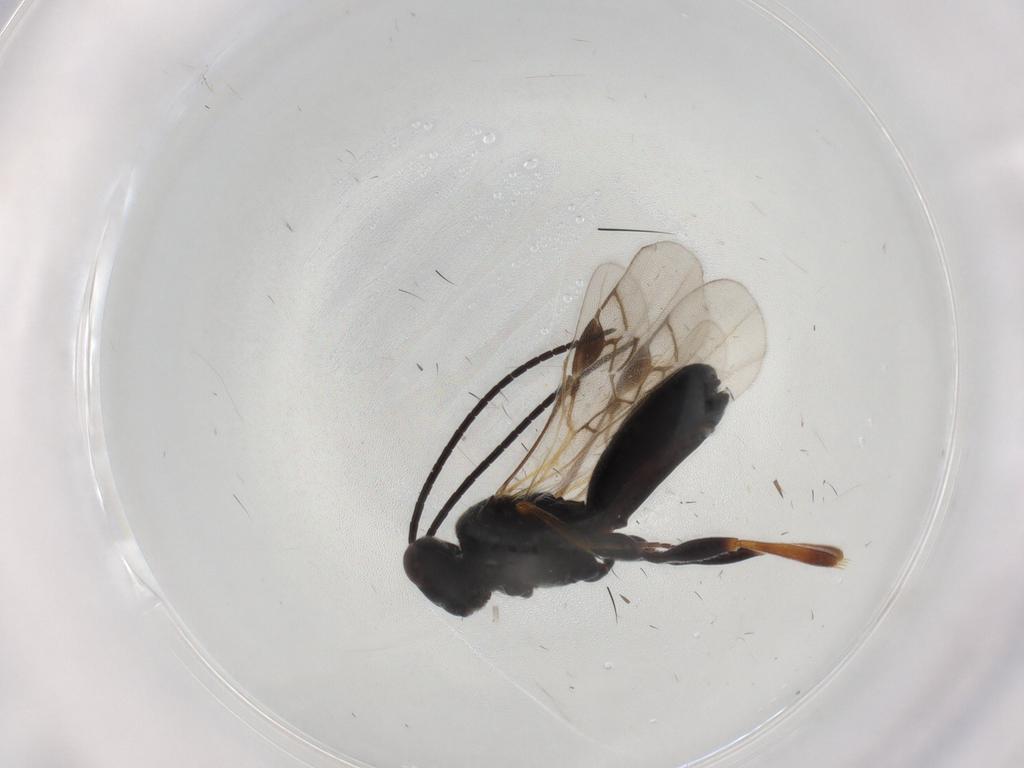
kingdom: Animalia
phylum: Arthropoda
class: Insecta
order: Hymenoptera
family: Braconidae
